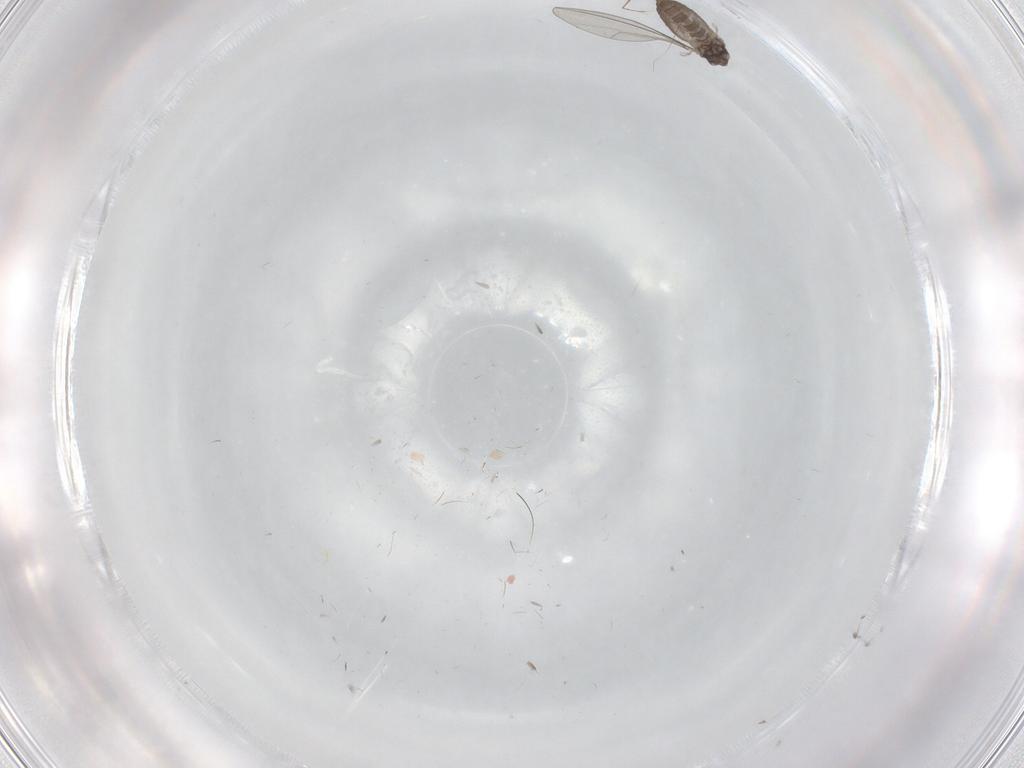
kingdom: Animalia
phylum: Arthropoda
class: Insecta
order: Diptera
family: Cecidomyiidae
